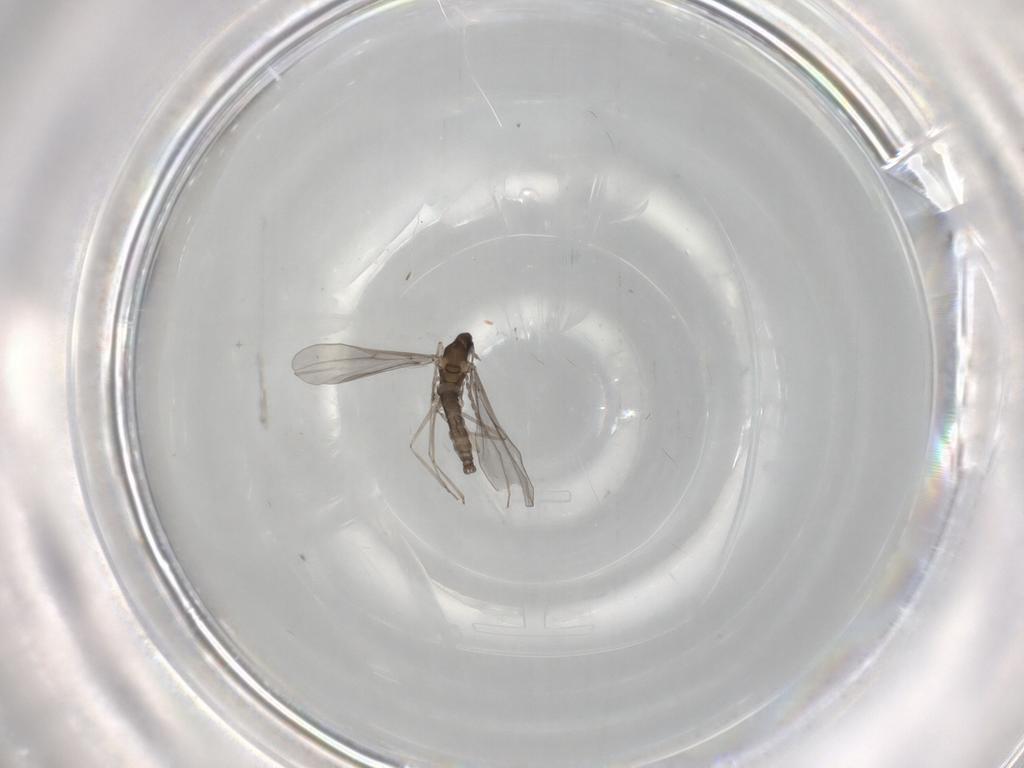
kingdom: Animalia
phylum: Arthropoda
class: Insecta
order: Diptera
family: Chironomidae
